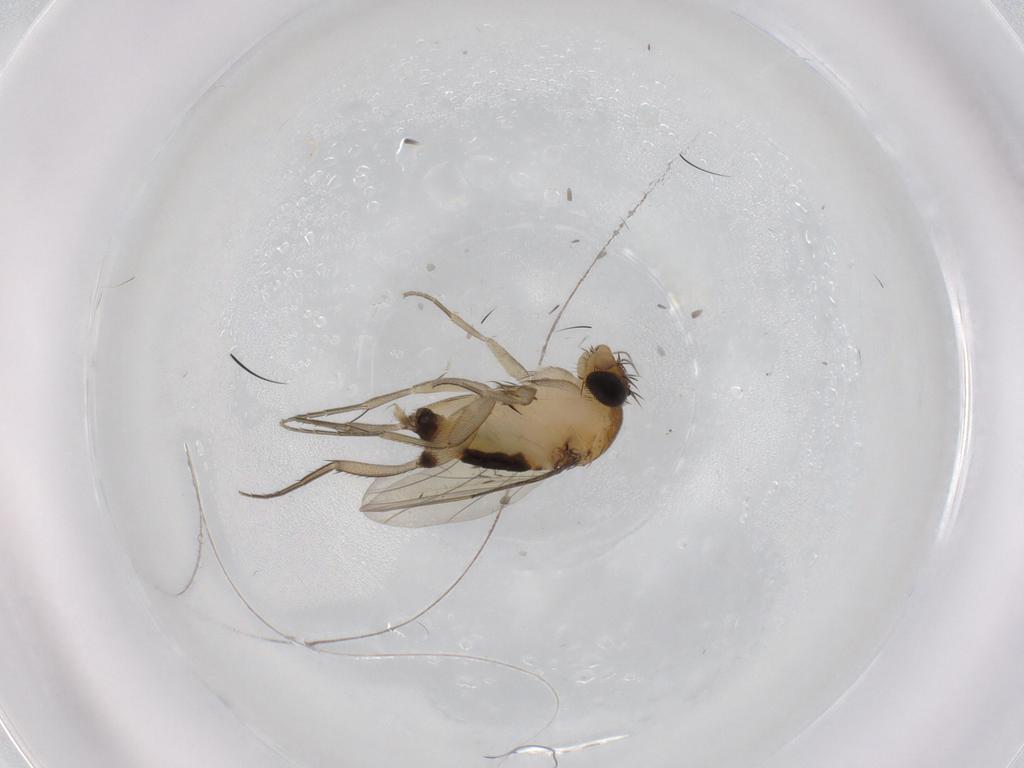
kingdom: Animalia
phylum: Arthropoda
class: Insecta
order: Diptera
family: Phoridae
